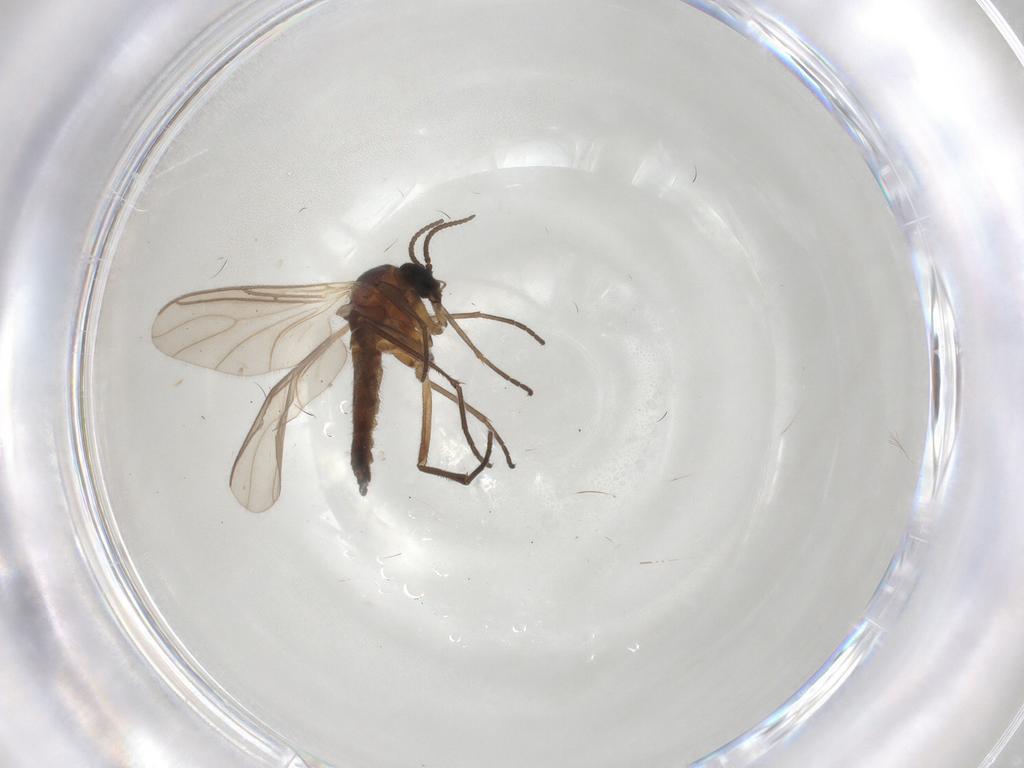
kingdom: Animalia
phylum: Arthropoda
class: Insecta
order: Diptera
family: Sciaridae
